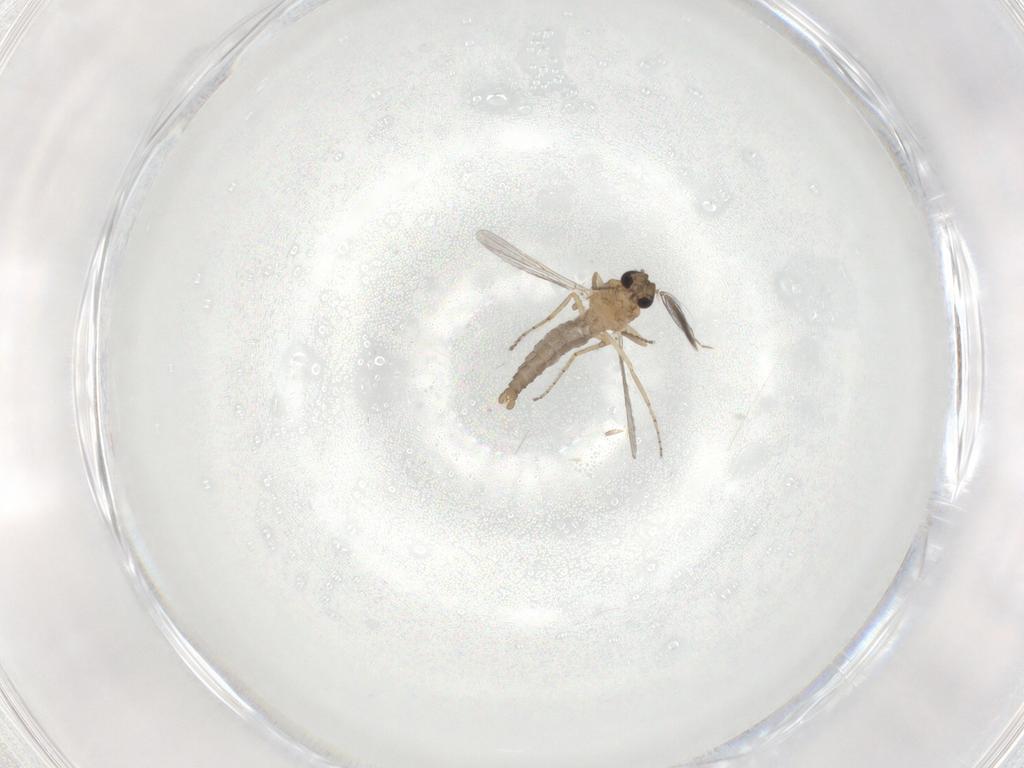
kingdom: Animalia
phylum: Arthropoda
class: Insecta
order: Diptera
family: Ceratopogonidae
